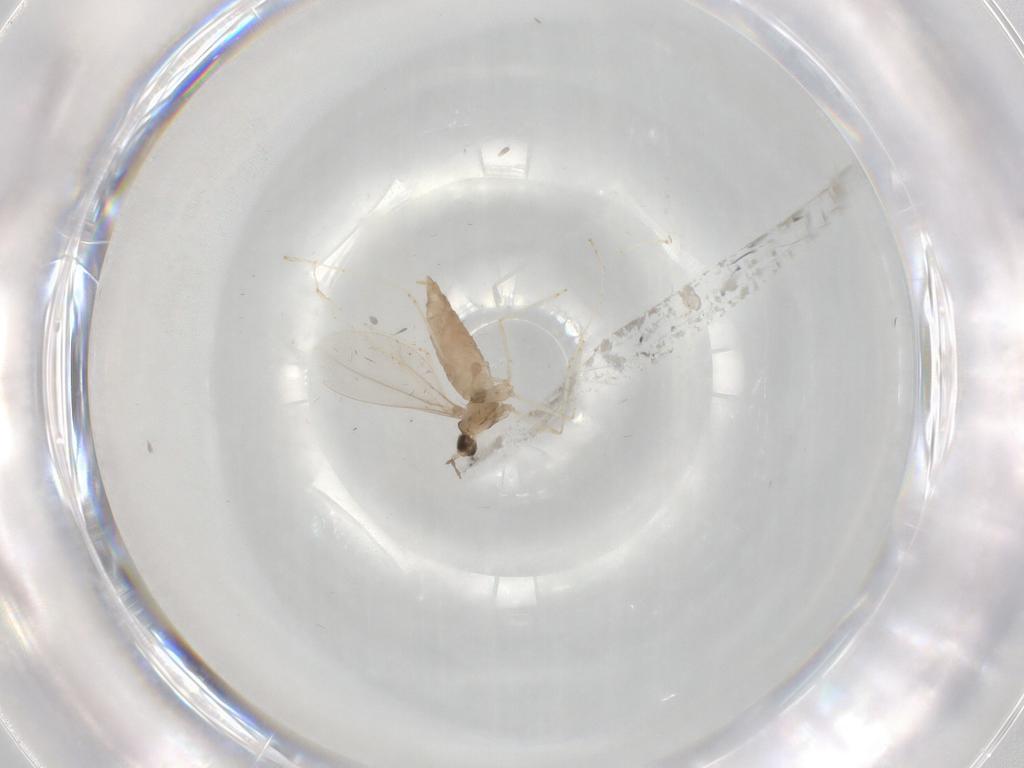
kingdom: Animalia
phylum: Arthropoda
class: Insecta
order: Diptera
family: Cecidomyiidae
